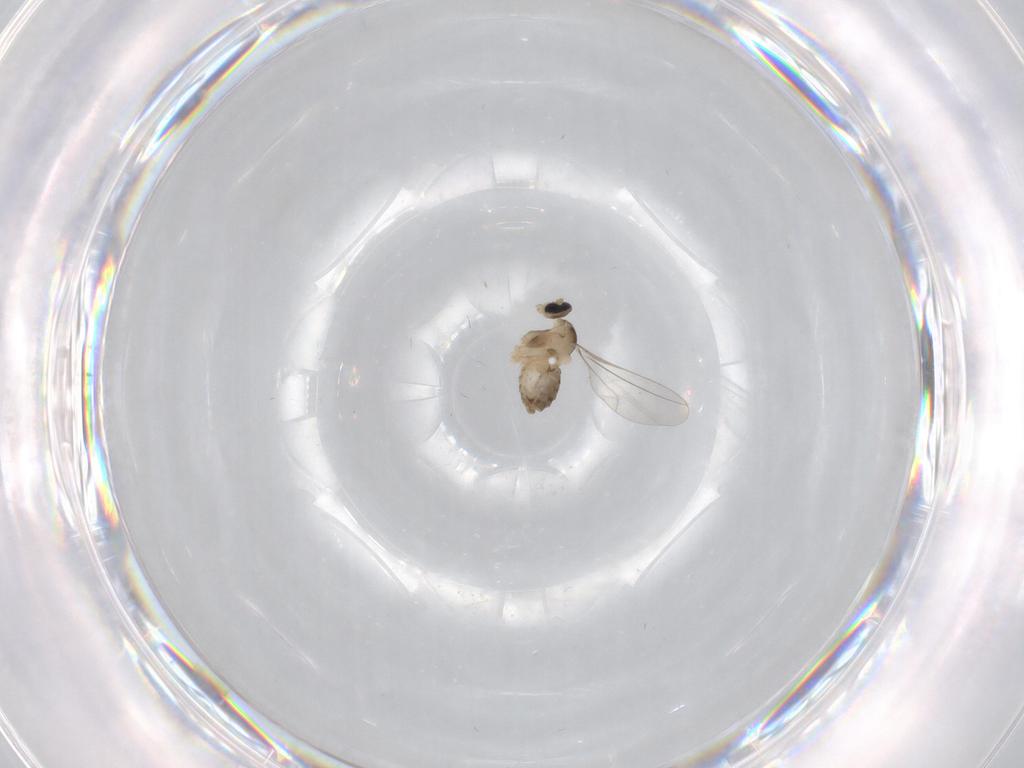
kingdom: Animalia
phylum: Arthropoda
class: Insecta
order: Diptera
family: Cecidomyiidae
